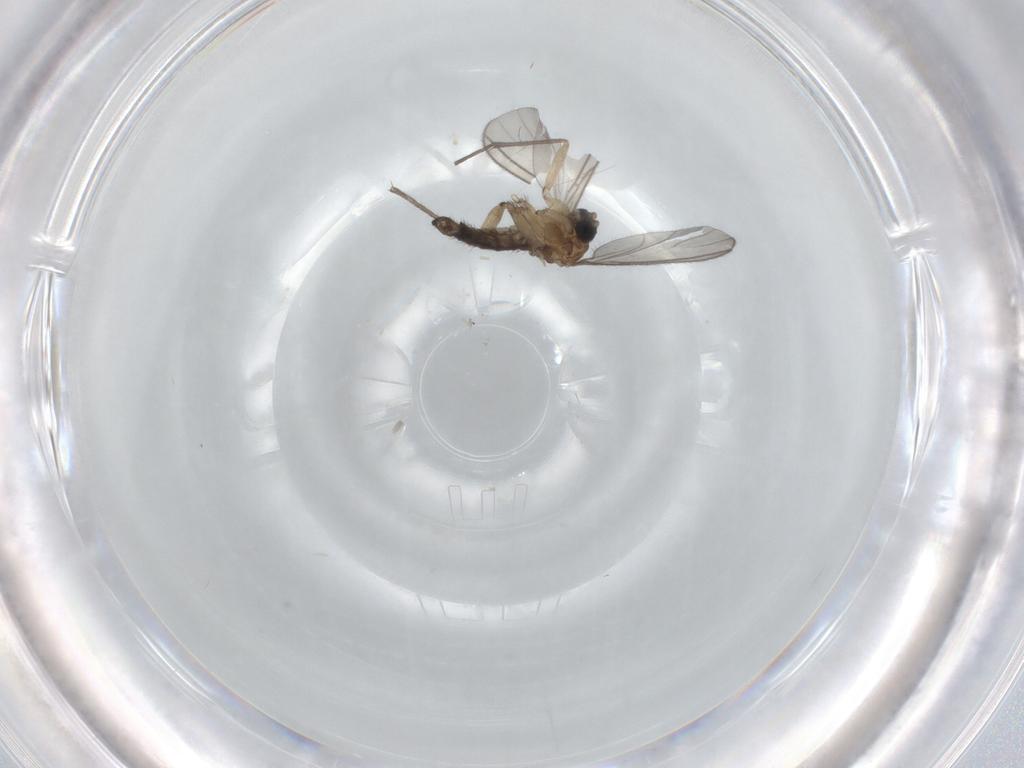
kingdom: Animalia
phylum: Arthropoda
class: Insecta
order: Diptera
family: Sciaridae
